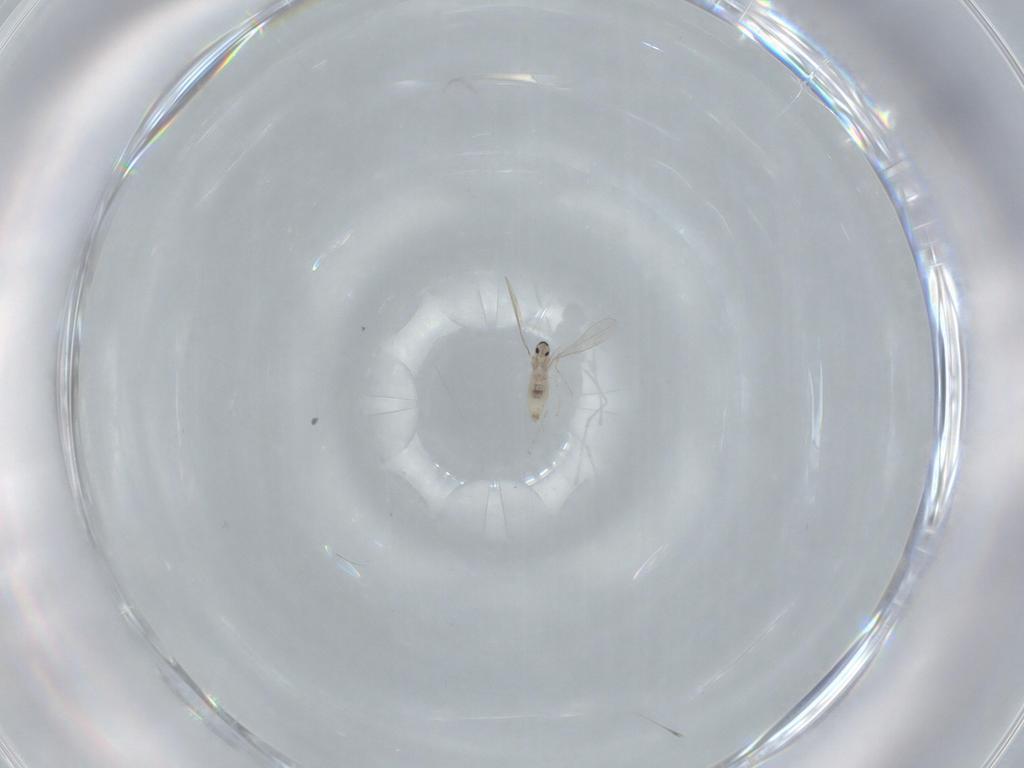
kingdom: Animalia
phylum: Arthropoda
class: Insecta
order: Diptera
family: Cecidomyiidae
